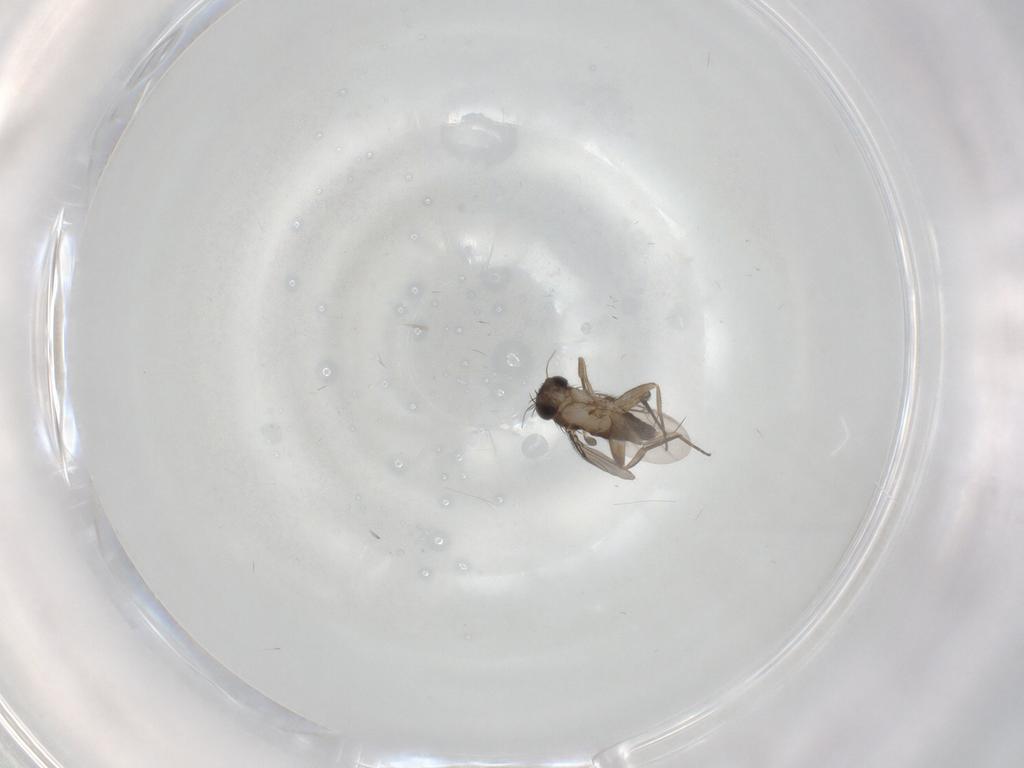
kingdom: Animalia
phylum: Arthropoda
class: Insecta
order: Diptera
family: Phoridae
